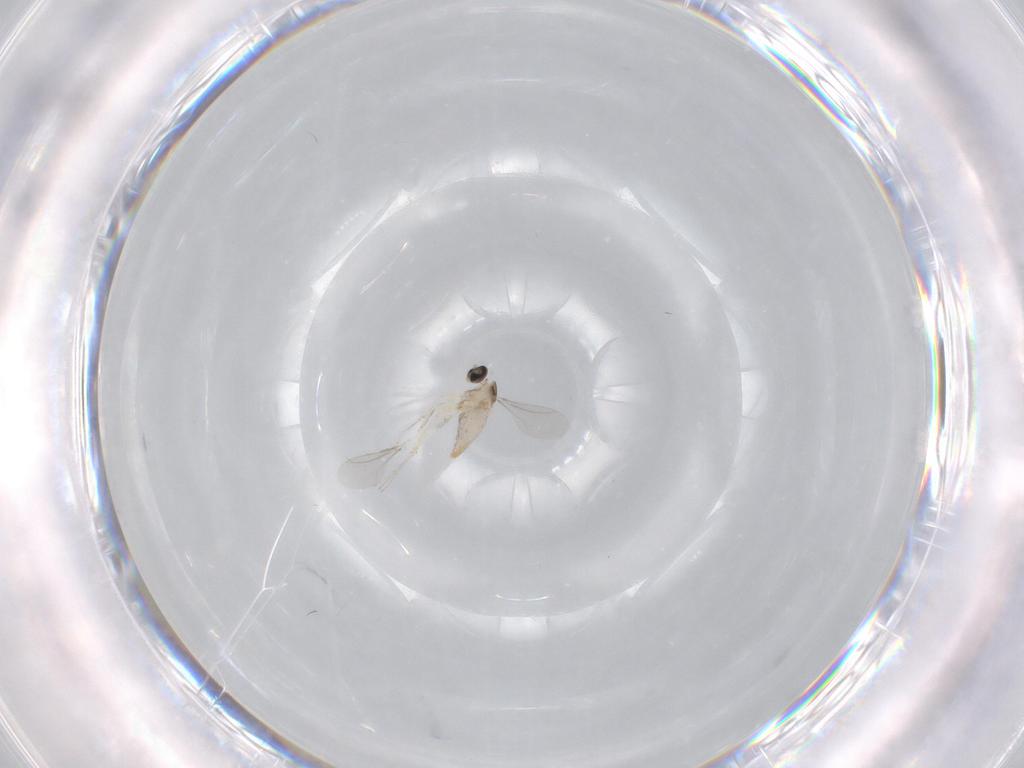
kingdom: Animalia
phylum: Arthropoda
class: Insecta
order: Diptera
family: Cecidomyiidae
